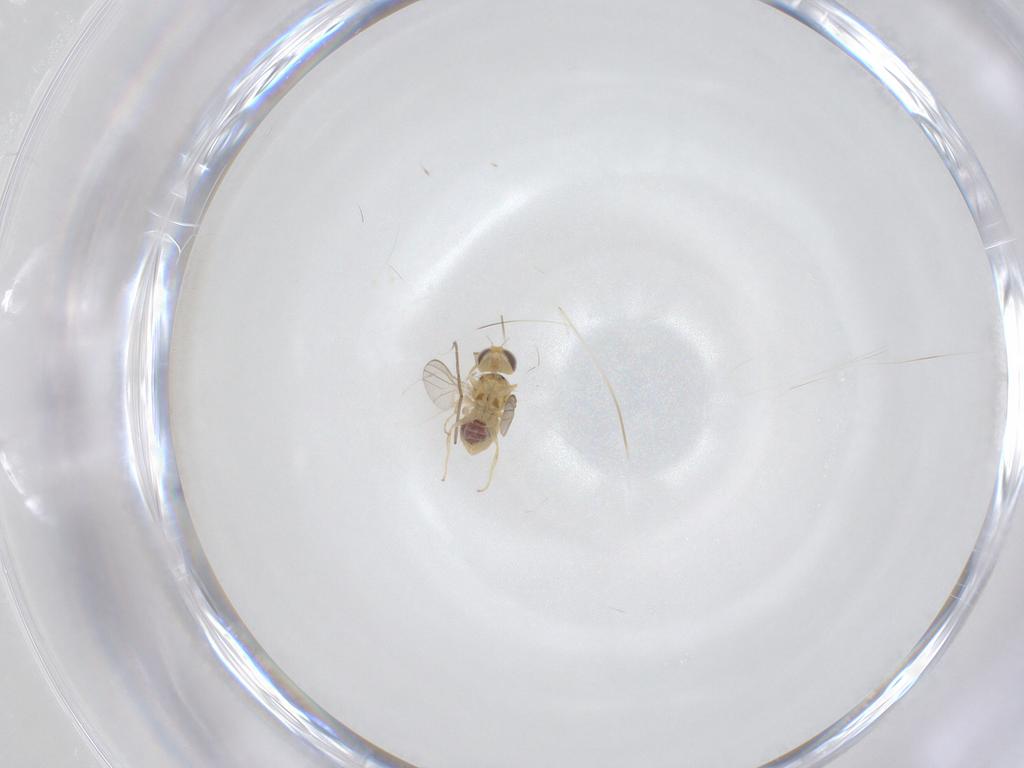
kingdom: Animalia
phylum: Arthropoda
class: Insecta
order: Diptera
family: Chyromyidae
